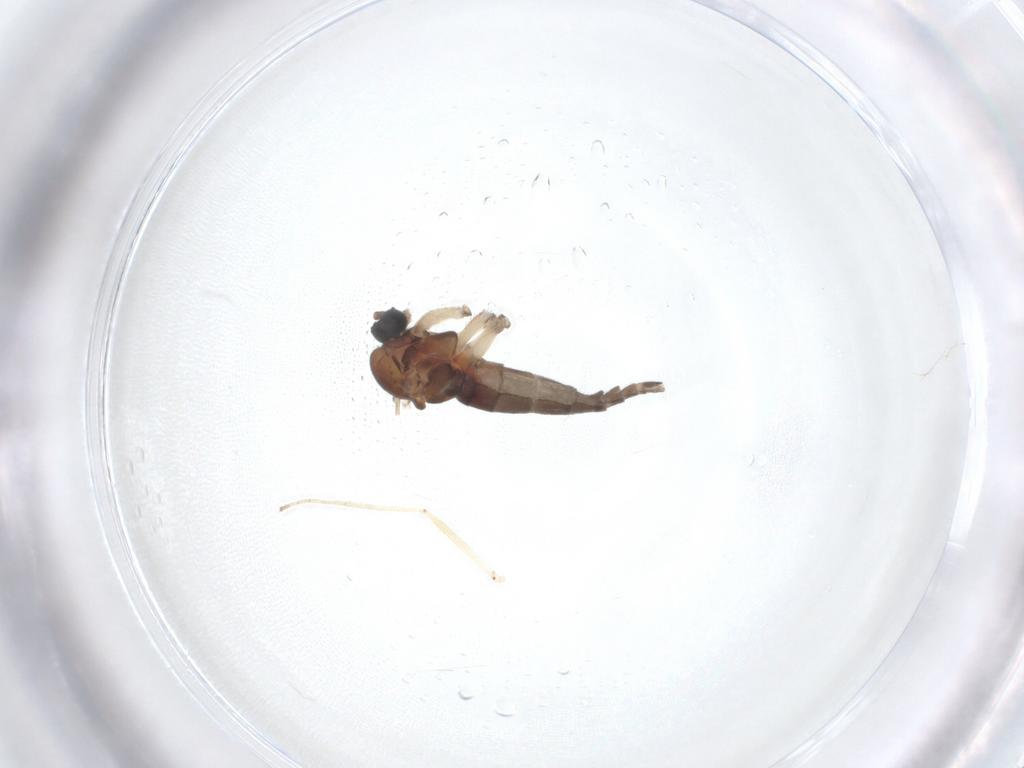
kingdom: Animalia
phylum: Arthropoda
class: Insecta
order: Diptera
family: Sciaridae
